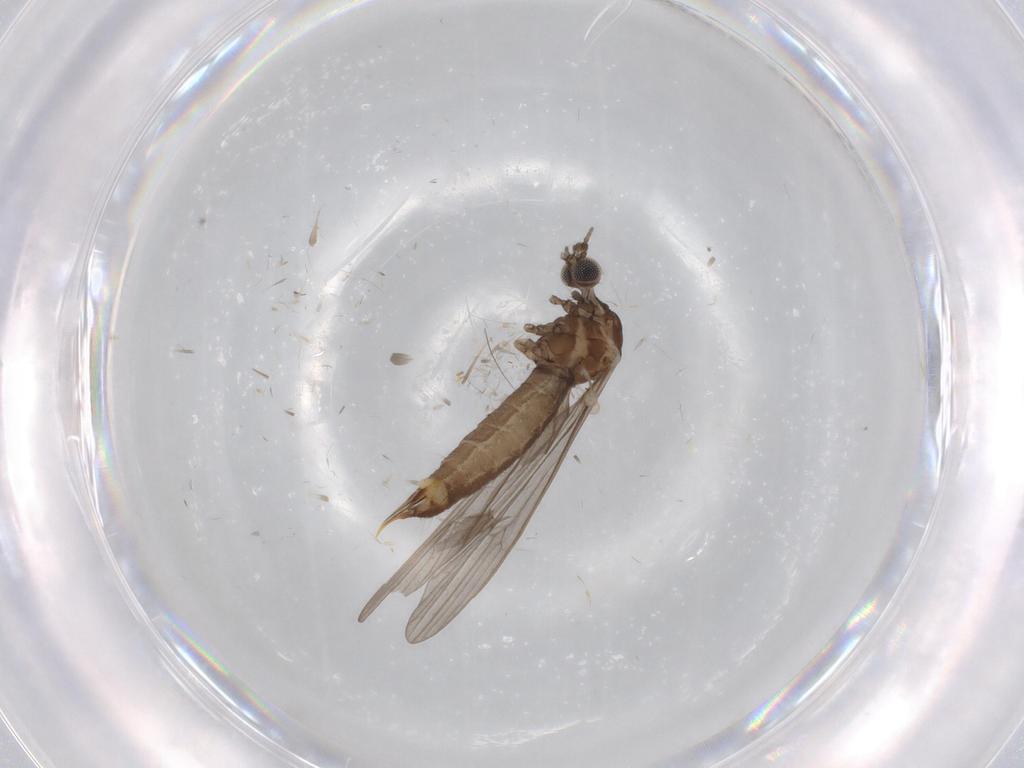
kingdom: Animalia
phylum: Arthropoda
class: Insecta
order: Diptera
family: Limoniidae
